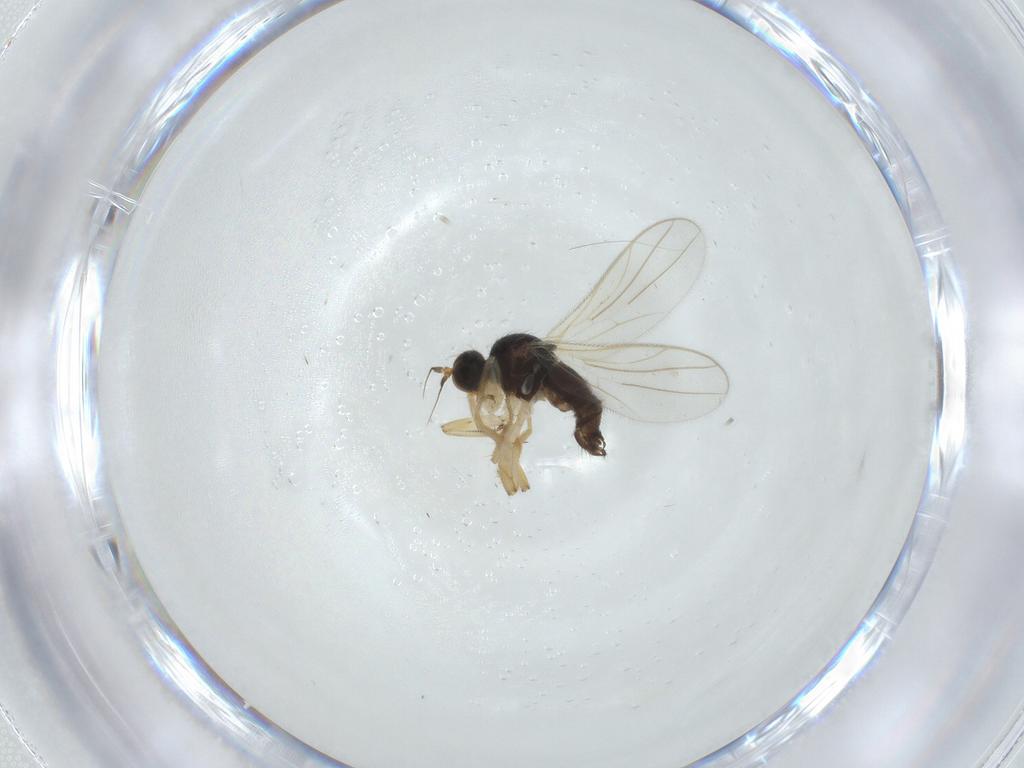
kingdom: Animalia
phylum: Arthropoda
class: Insecta
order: Diptera
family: Hybotidae
